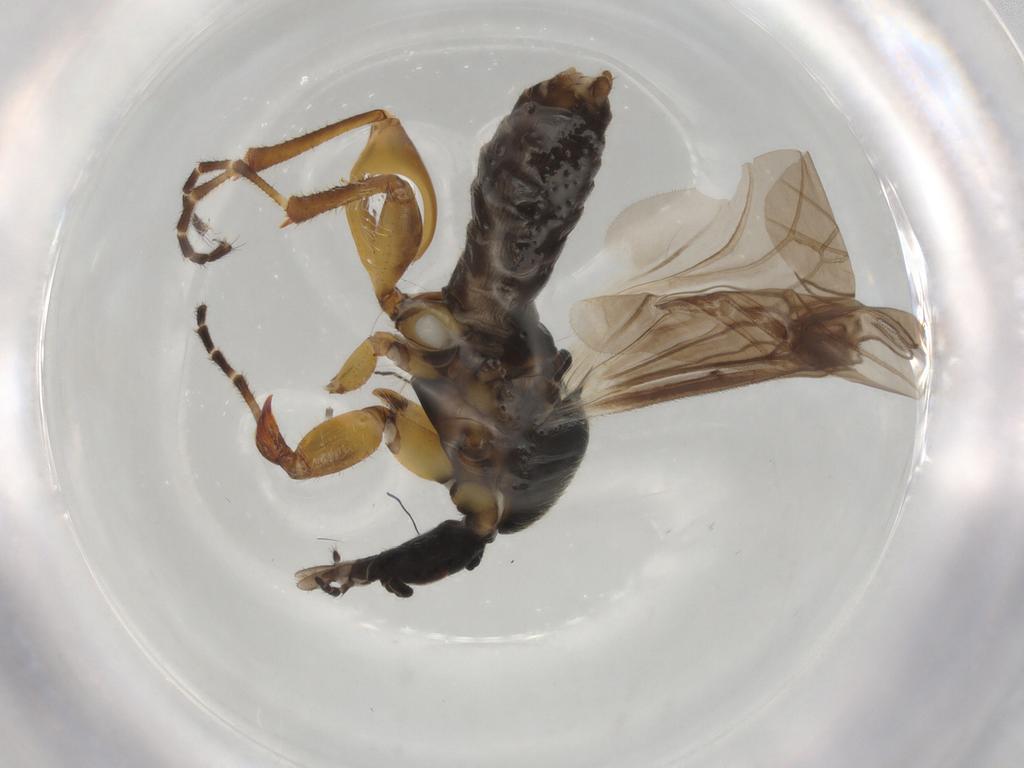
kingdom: Animalia
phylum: Arthropoda
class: Insecta
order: Diptera
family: Bibionidae
